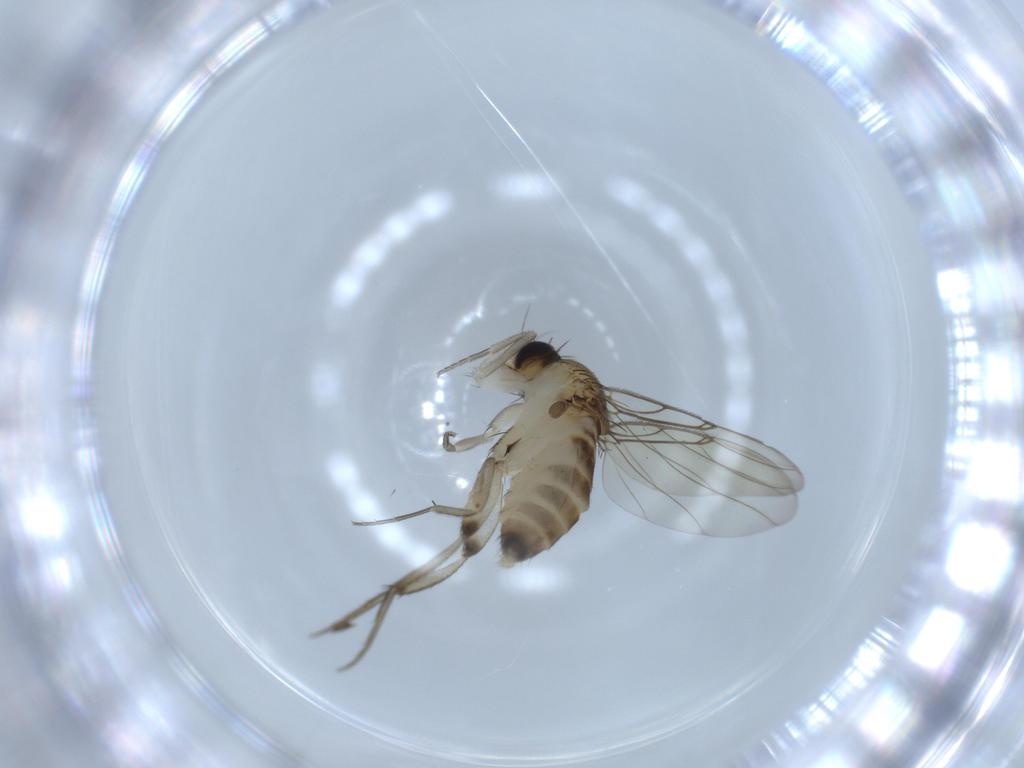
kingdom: Animalia
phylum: Arthropoda
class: Insecta
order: Diptera
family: Phoridae
